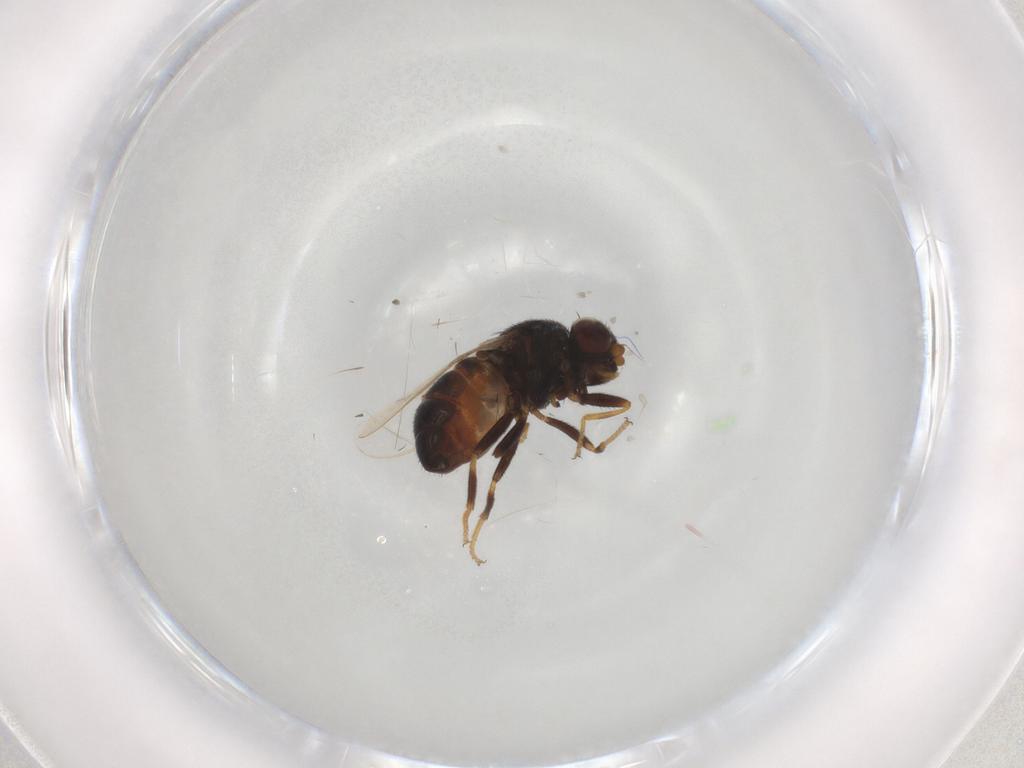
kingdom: Animalia
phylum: Arthropoda
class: Insecta
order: Diptera
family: Chloropidae
